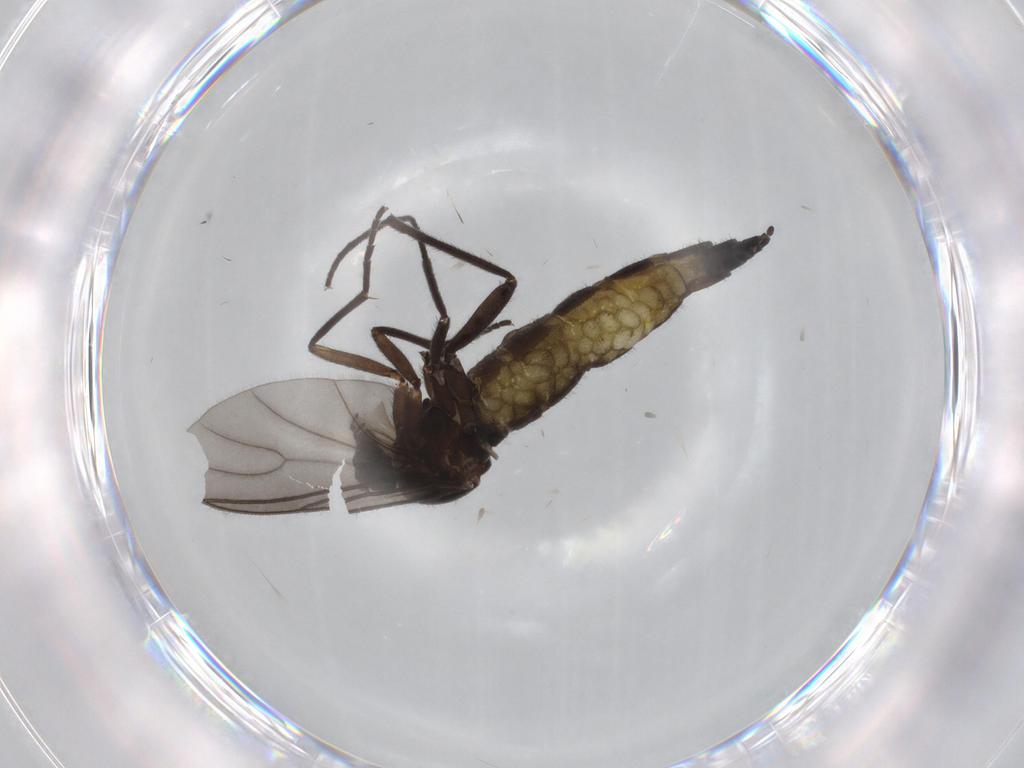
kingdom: Animalia
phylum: Arthropoda
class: Insecta
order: Diptera
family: Sciaridae
